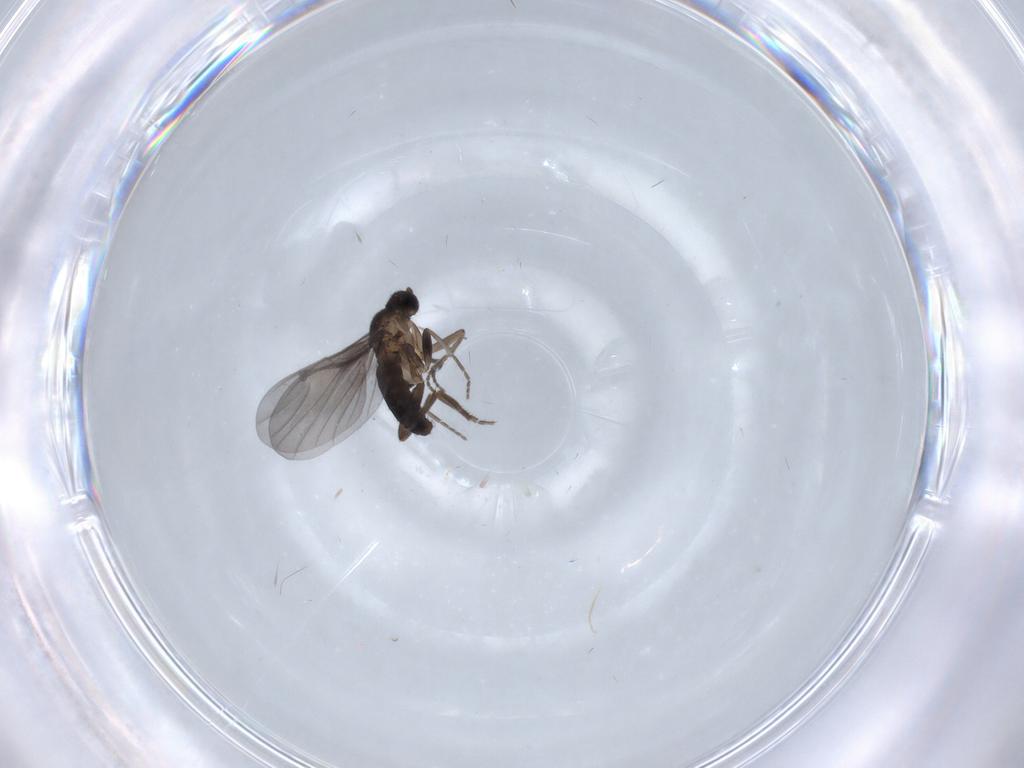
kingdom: Animalia
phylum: Arthropoda
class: Insecta
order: Diptera
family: Phoridae
